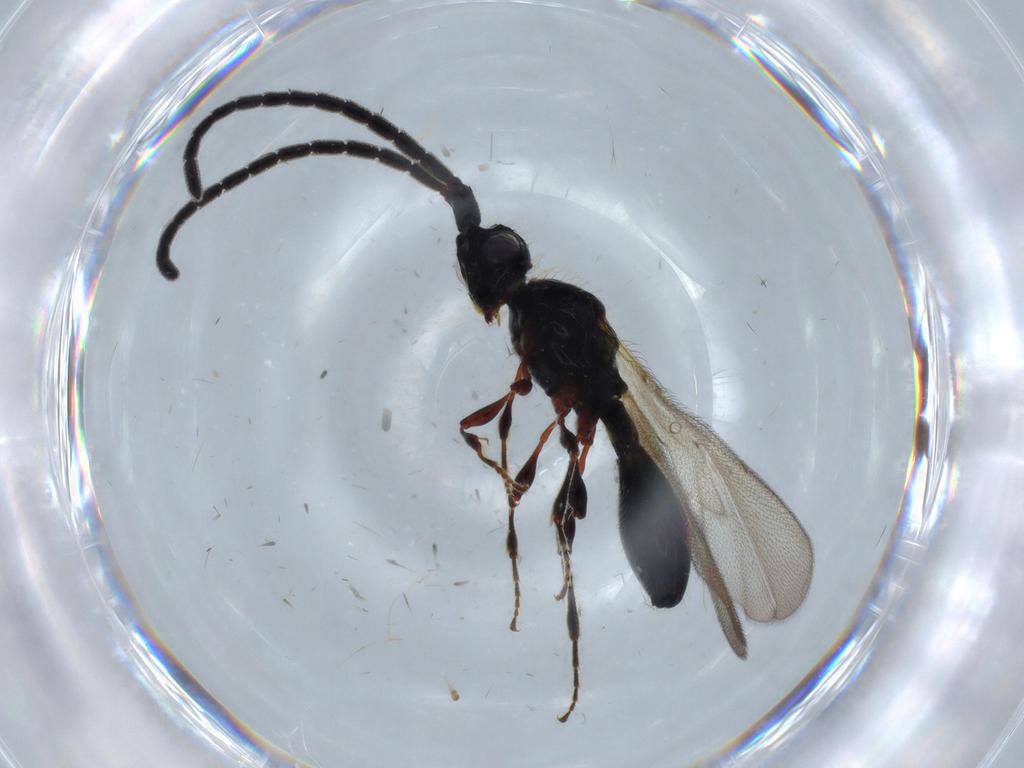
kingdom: Animalia
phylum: Arthropoda
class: Insecta
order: Hymenoptera
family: Diapriidae
